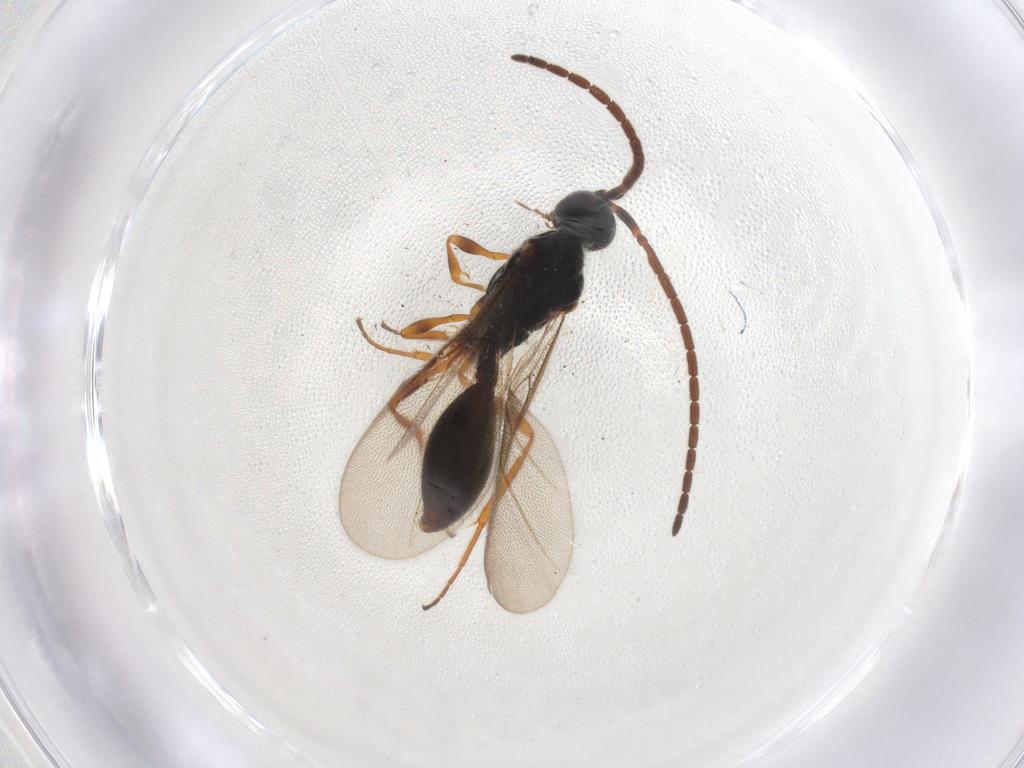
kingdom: Animalia
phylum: Arthropoda
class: Insecta
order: Hymenoptera
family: Braconidae
